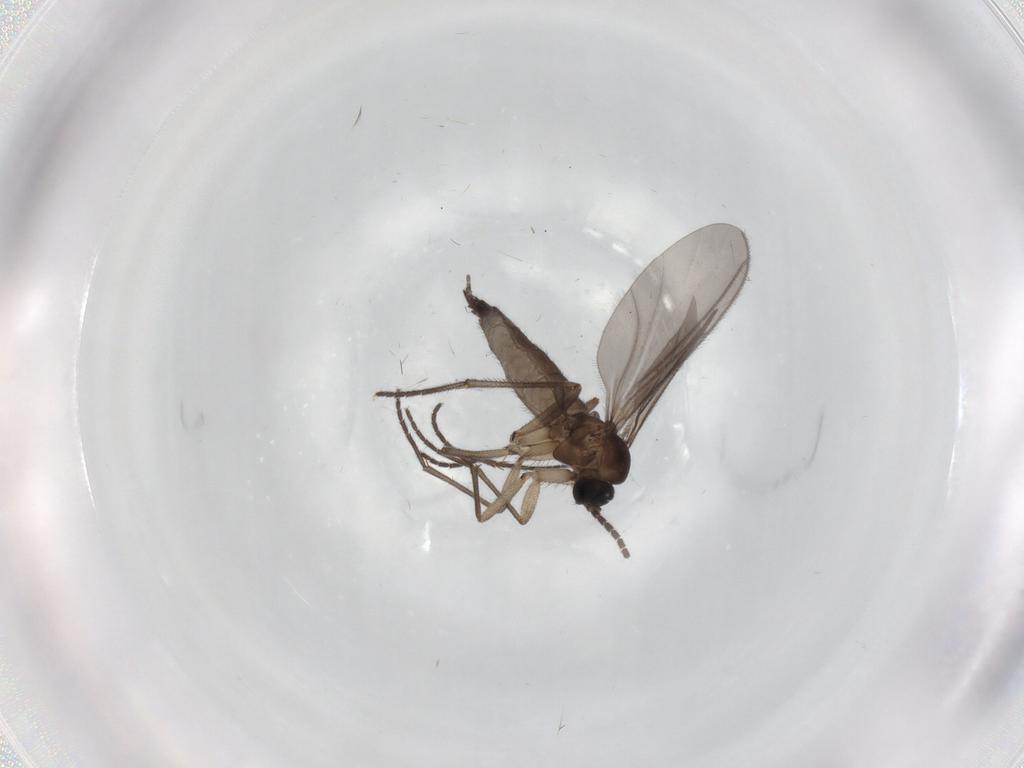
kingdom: Animalia
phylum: Arthropoda
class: Insecta
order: Diptera
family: Sciaridae
